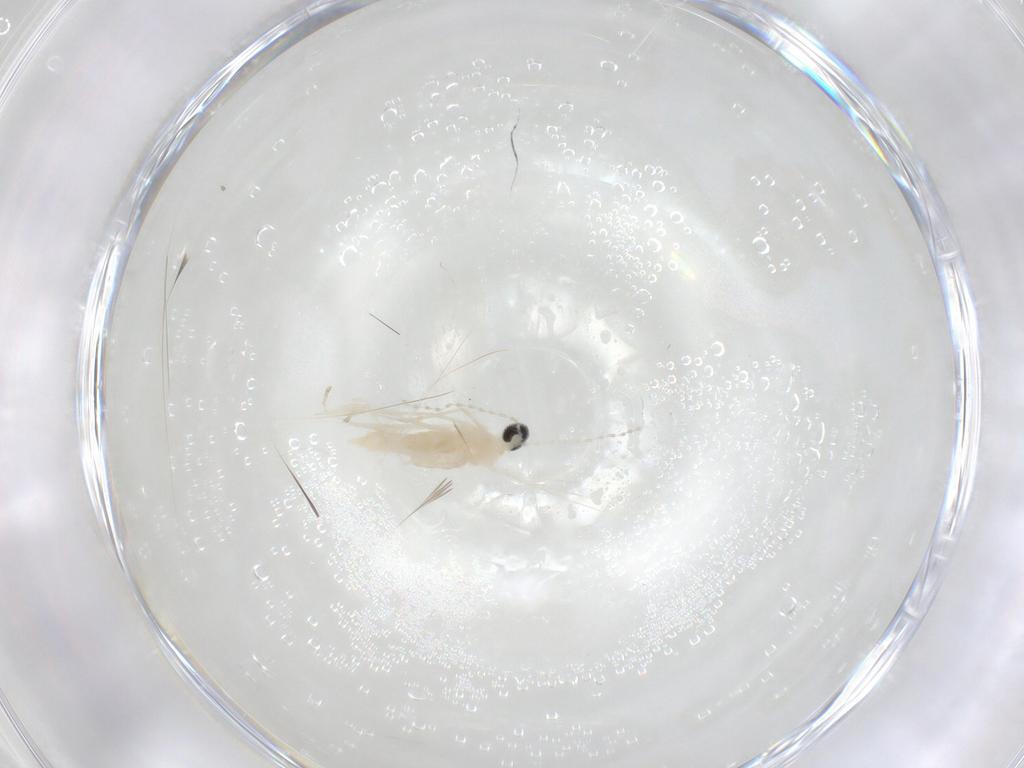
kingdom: Animalia
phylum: Arthropoda
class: Insecta
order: Diptera
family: Cecidomyiidae
